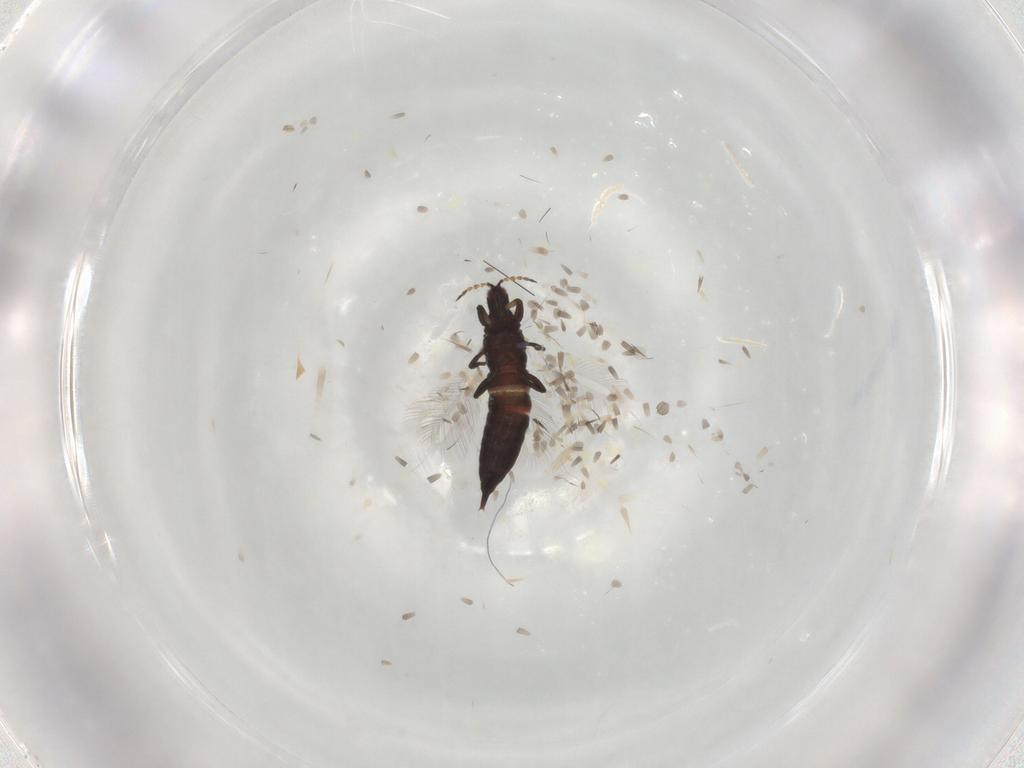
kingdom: Animalia
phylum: Arthropoda
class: Insecta
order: Thysanoptera
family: Phlaeothripidae
